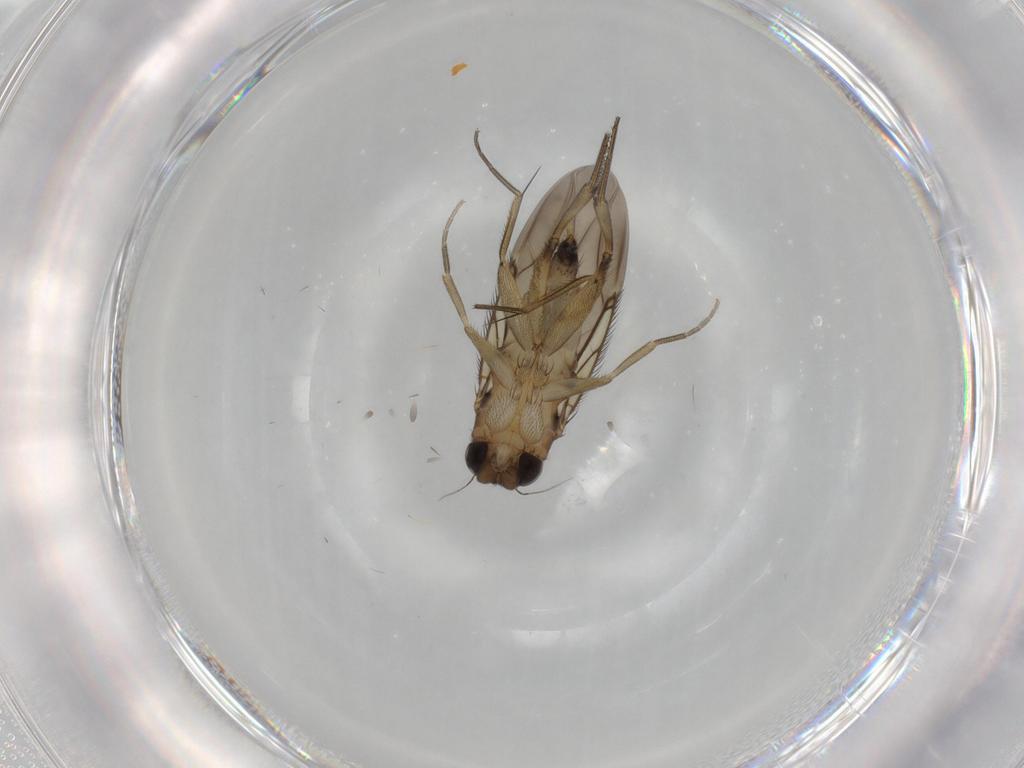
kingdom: Animalia
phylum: Arthropoda
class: Insecta
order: Diptera
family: Phoridae
